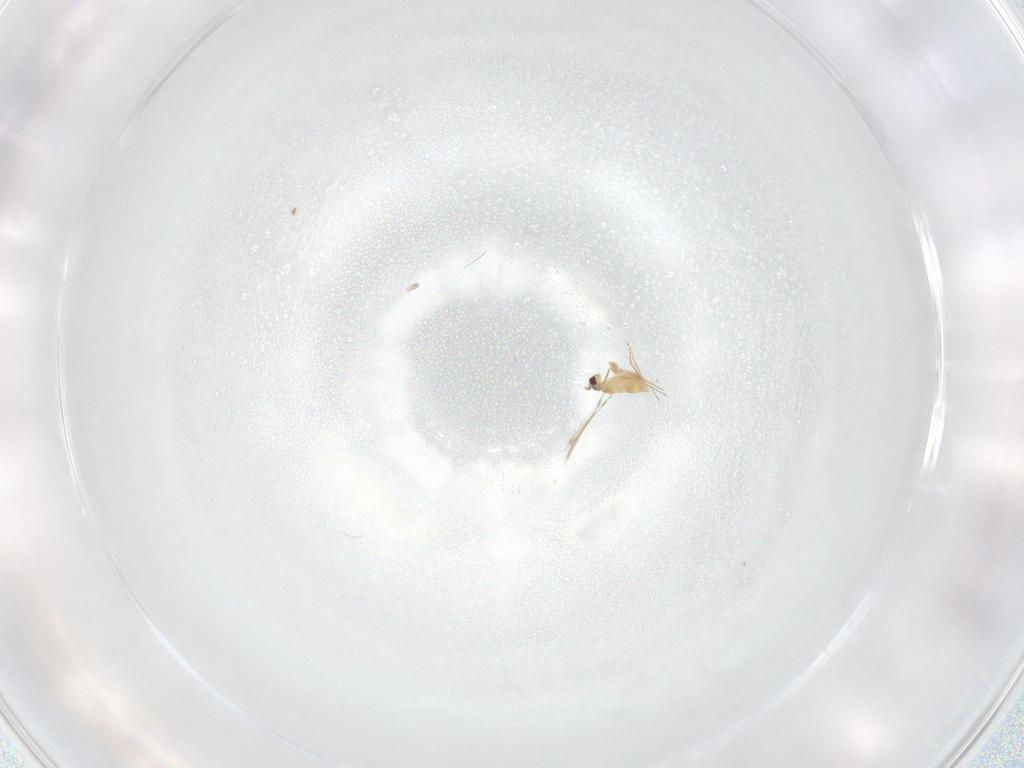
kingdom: Animalia
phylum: Arthropoda
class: Insecta
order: Hymenoptera
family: Mymaridae
